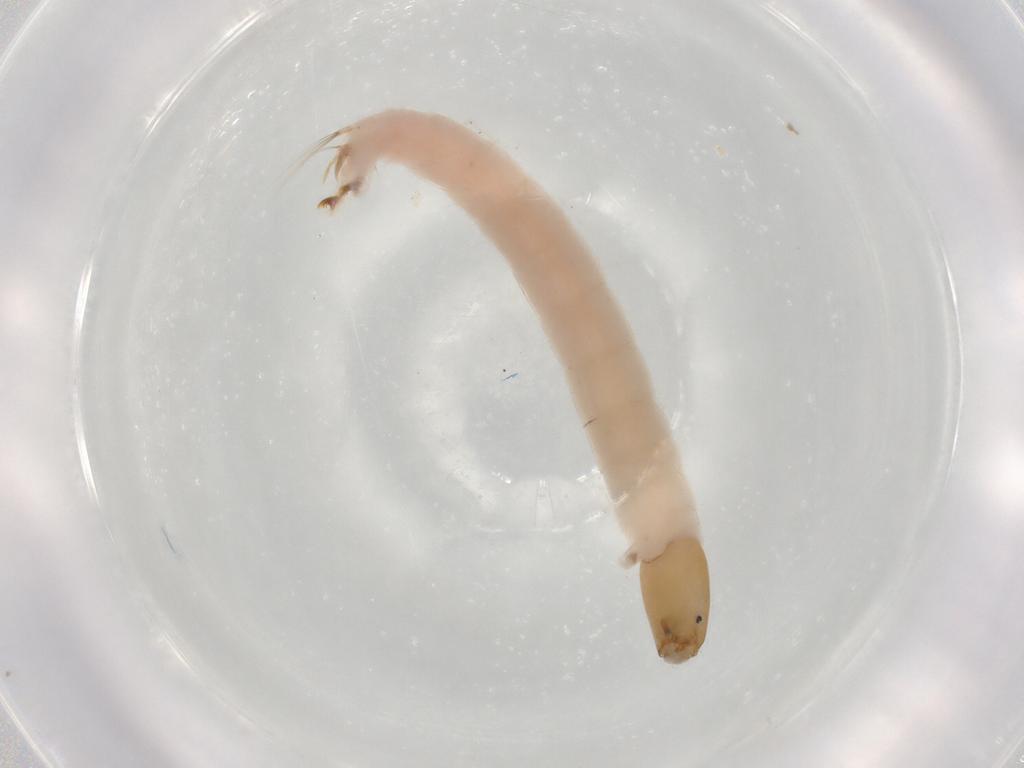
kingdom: Animalia
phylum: Arthropoda
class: Insecta
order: Diptera
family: Chironomidae
